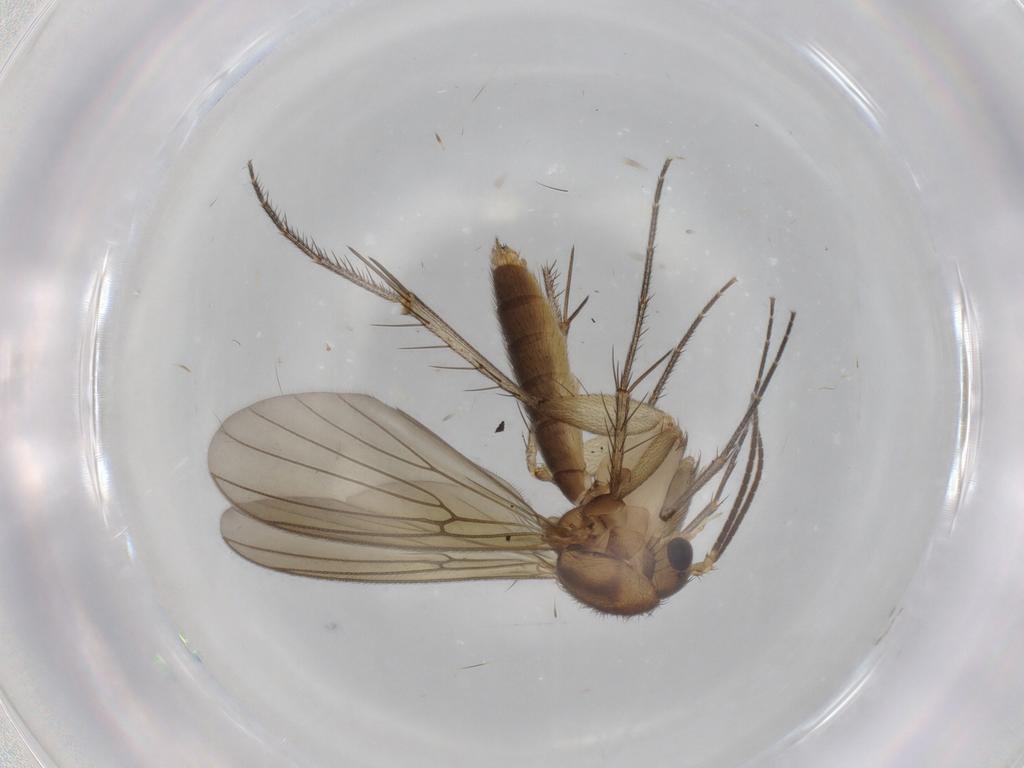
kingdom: Animalia
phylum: Arthropoda
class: Insecta
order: Diptera
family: Mycetophilidae
